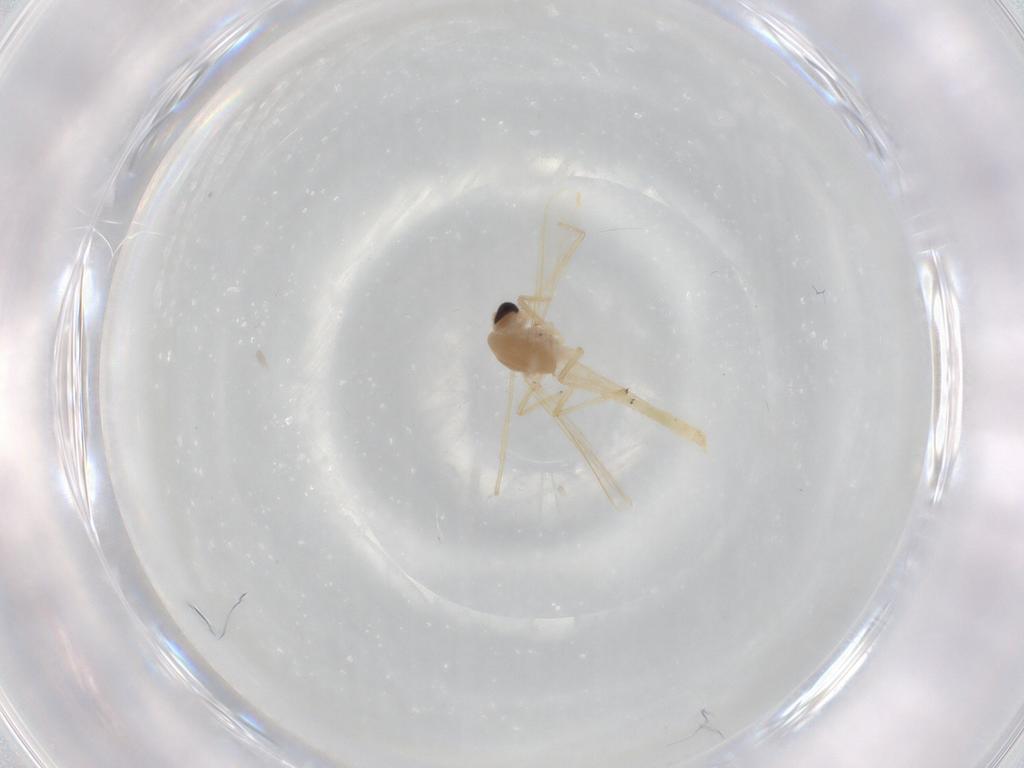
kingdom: Animalia
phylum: Arthropoda
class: Insecta
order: Diptera
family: Chironomidae
